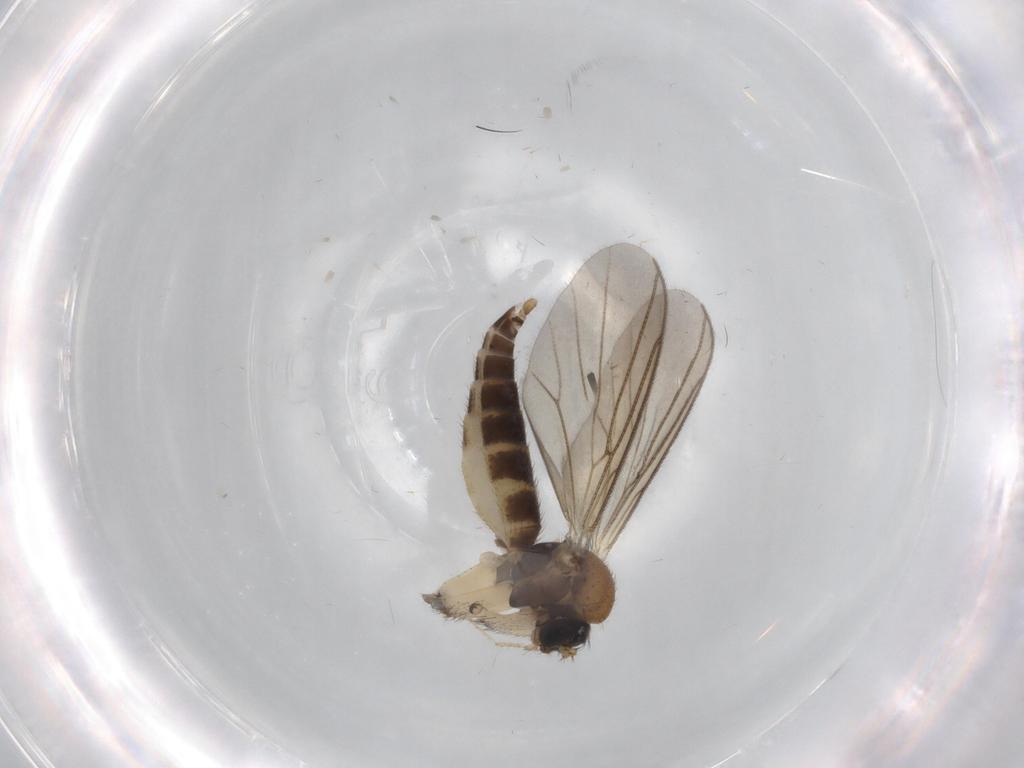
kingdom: Animalia
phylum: Arthropoda
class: Insecta
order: Diptera
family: Mycetophilidae
